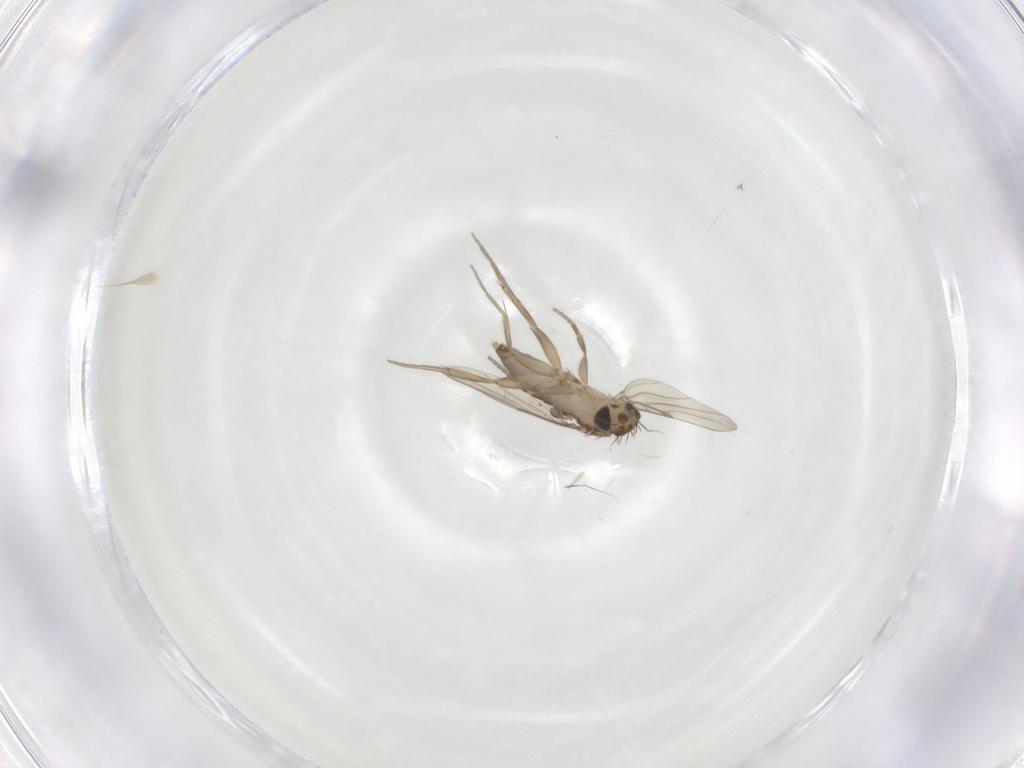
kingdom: Animalia
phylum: Arthropoda
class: Insecta
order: Diptera
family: Phoridae
